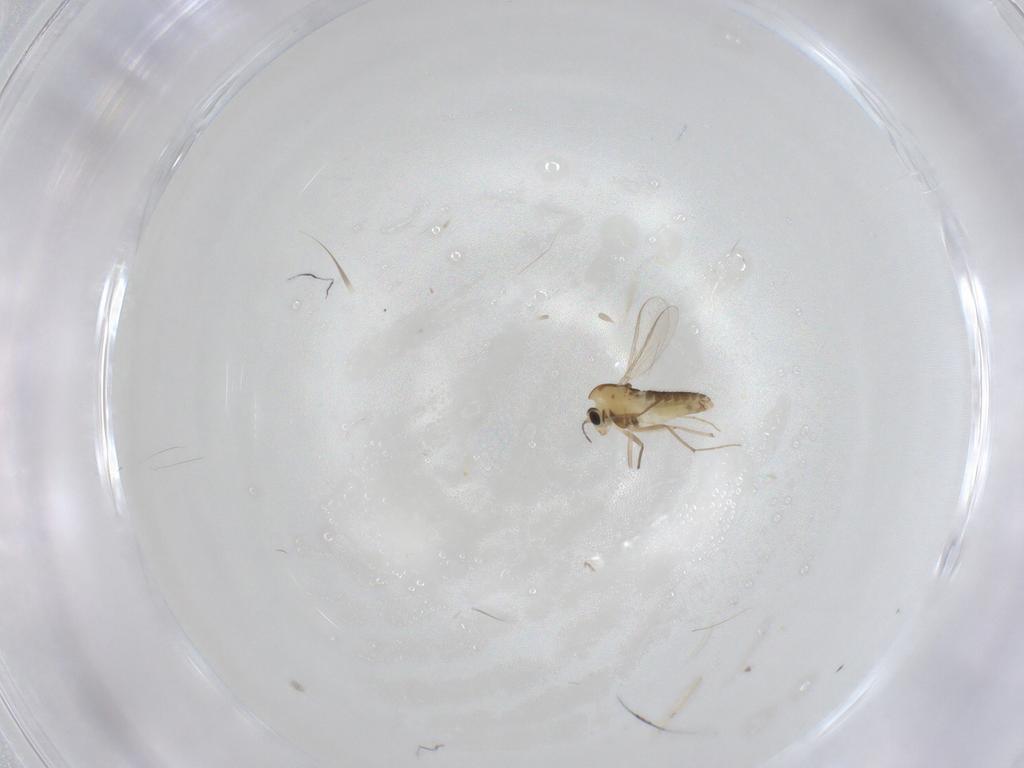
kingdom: Animalia
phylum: Arthropoda
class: Insecta
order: Diptera
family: Chironomidae
